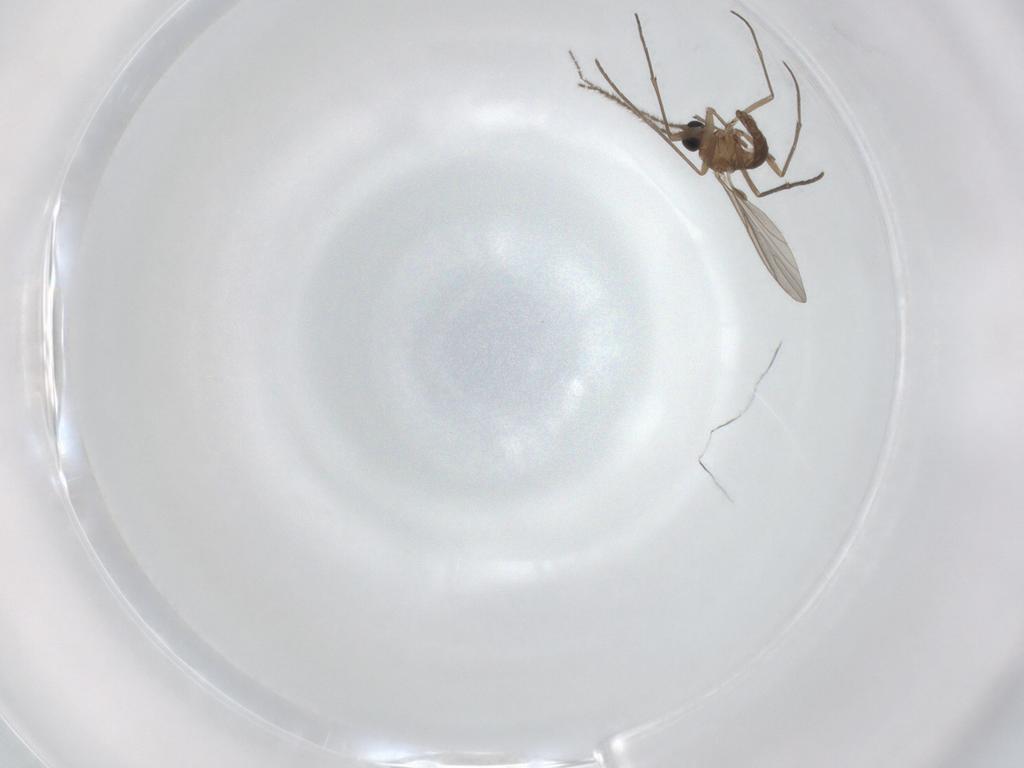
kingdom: Animalia
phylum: Arthropoda
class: Insecta
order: Diptera
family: Sciaridae
